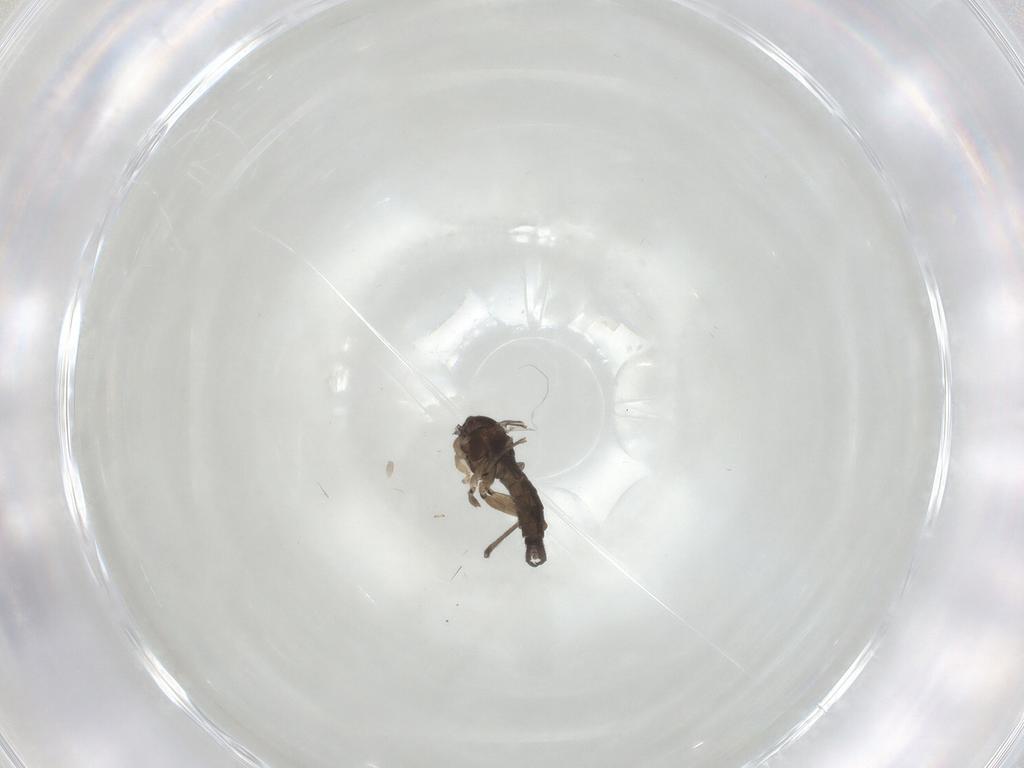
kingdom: Animalia
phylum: Arthropoda
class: Insecta
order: Diptera
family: Sciaridae
